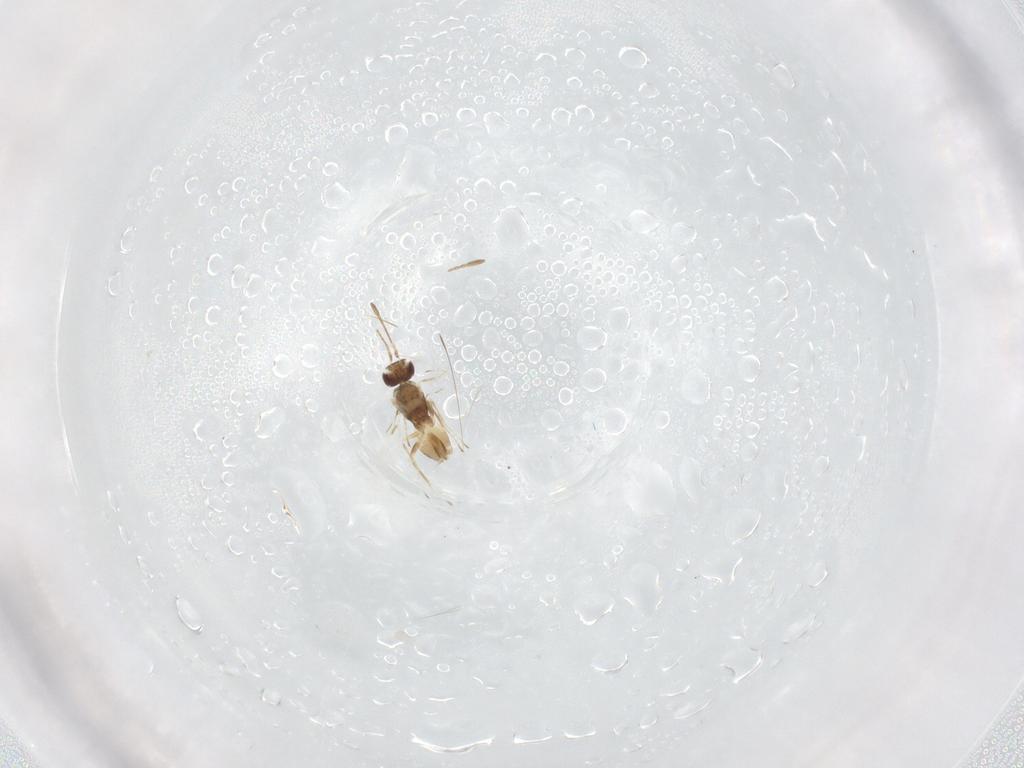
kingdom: Animalia
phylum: Arthropoda
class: Insecta
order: Hymenoptera
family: Mymaridae
